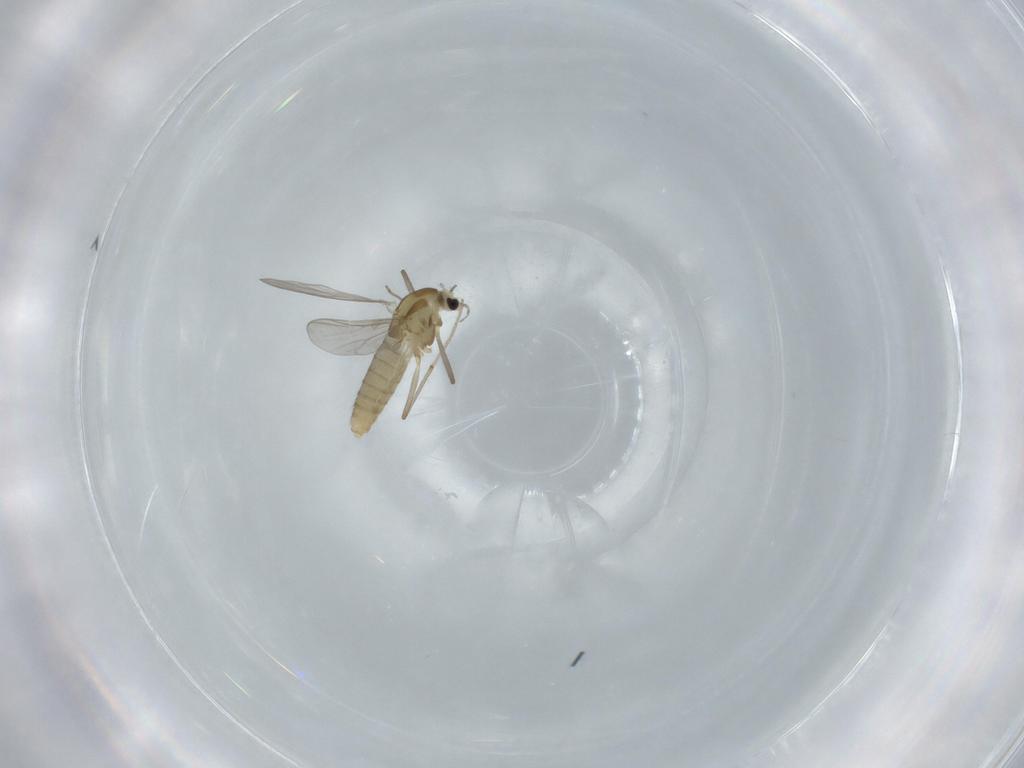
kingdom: Animalia
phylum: Arthropoda
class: Insecta
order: Diptera
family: Chironomidae
